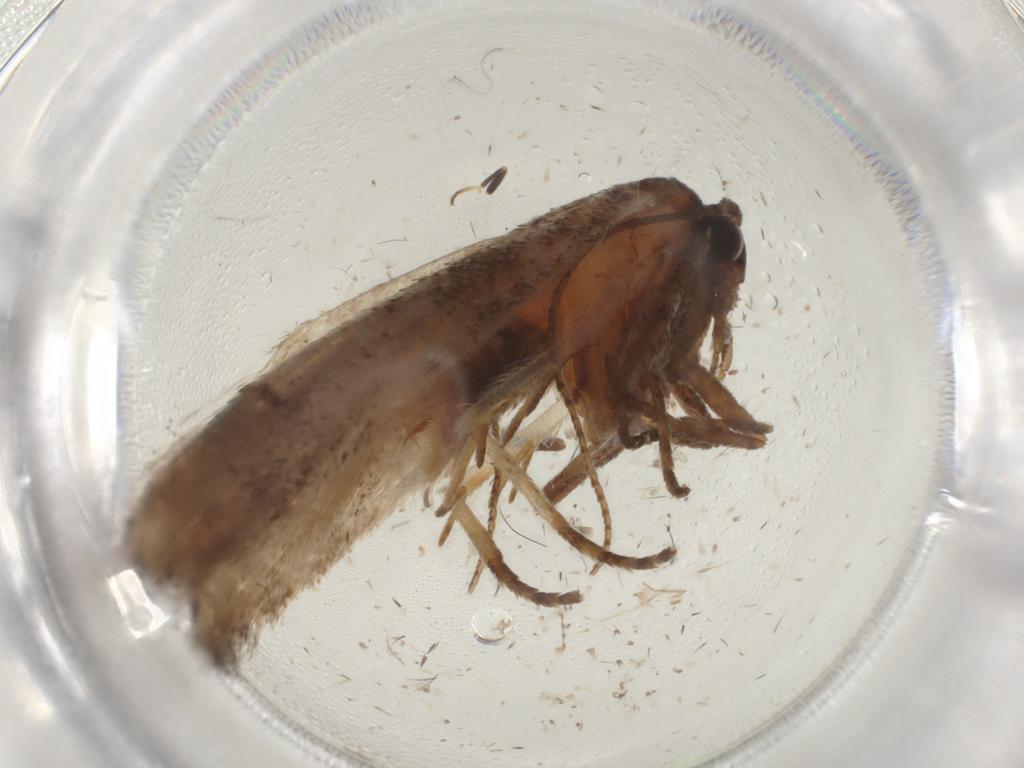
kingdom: Animalia
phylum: Arthropoda
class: Insecta
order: Lepidoptera
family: Cosmopterigidae
